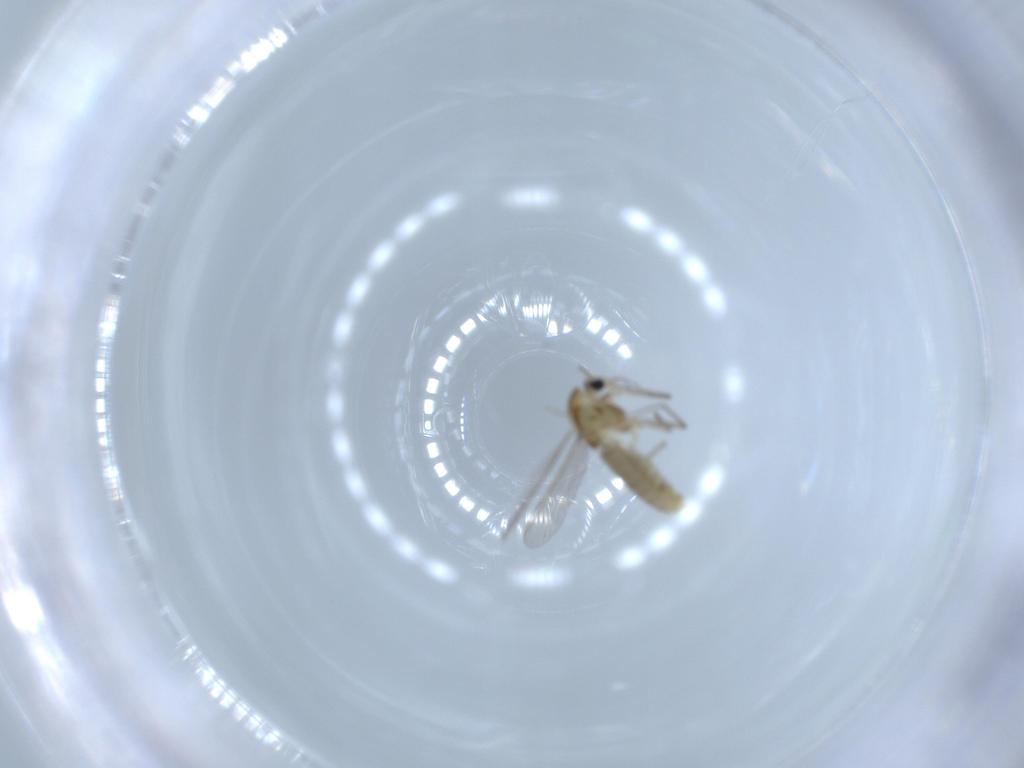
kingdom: Animalia
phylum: Arthropoda
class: Insecta
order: Diptera
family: Chironomidae
